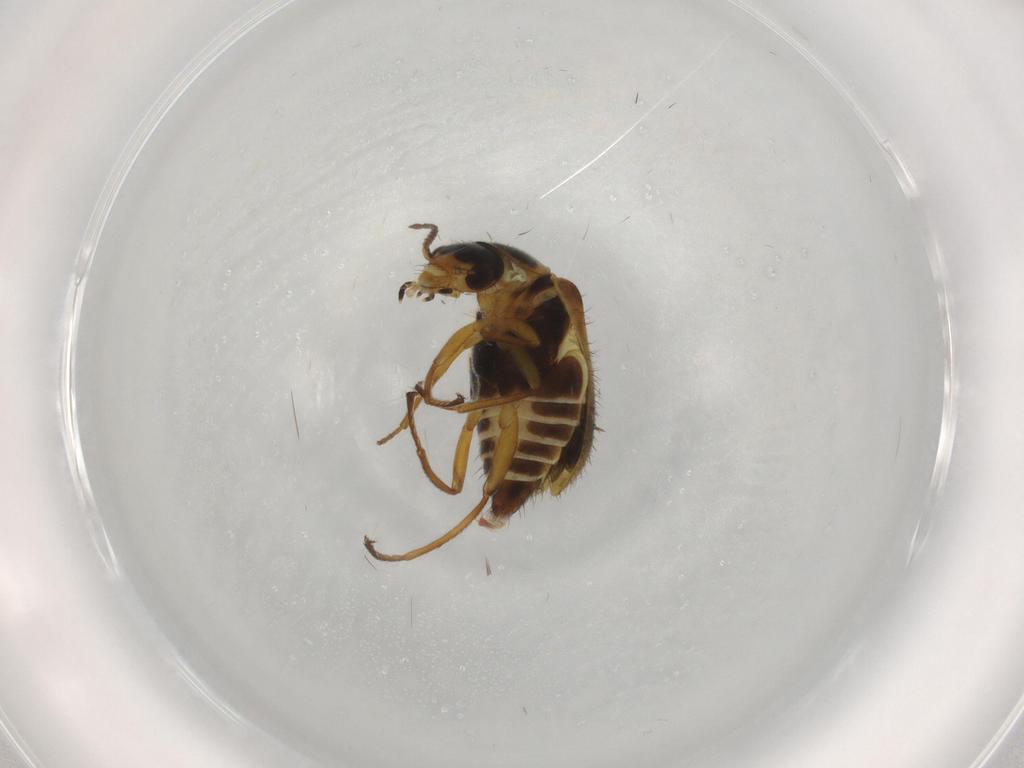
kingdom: Animalia
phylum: Arthropoda
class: Insecta
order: Coleoptera
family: Melyridae
